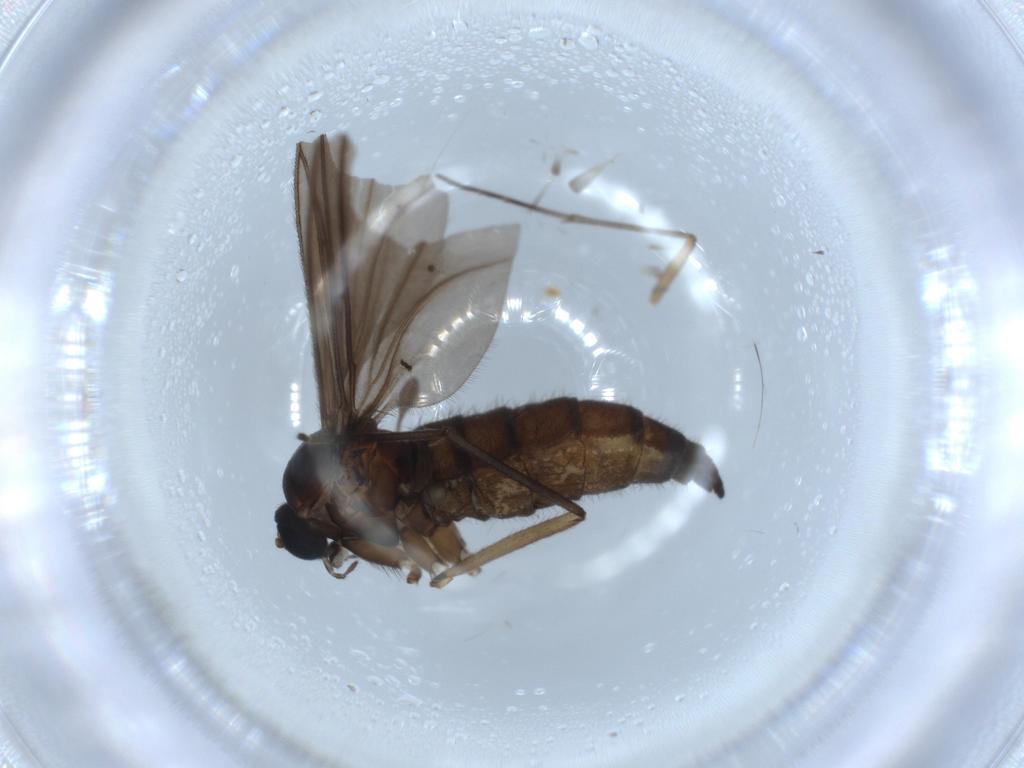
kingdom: Animalia
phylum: Arthropoda
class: Insecta
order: Diptera
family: Sciaridae
